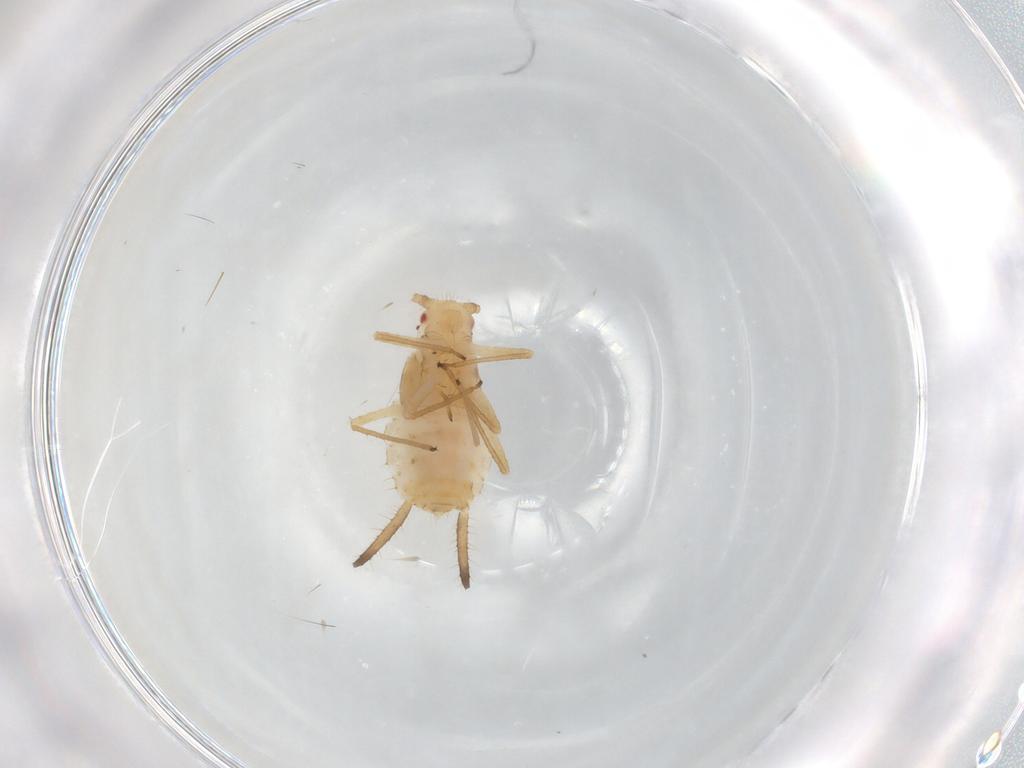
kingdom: Animalia
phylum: Arthropoda
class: Insecta
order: Hemiptera
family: Aphididae
